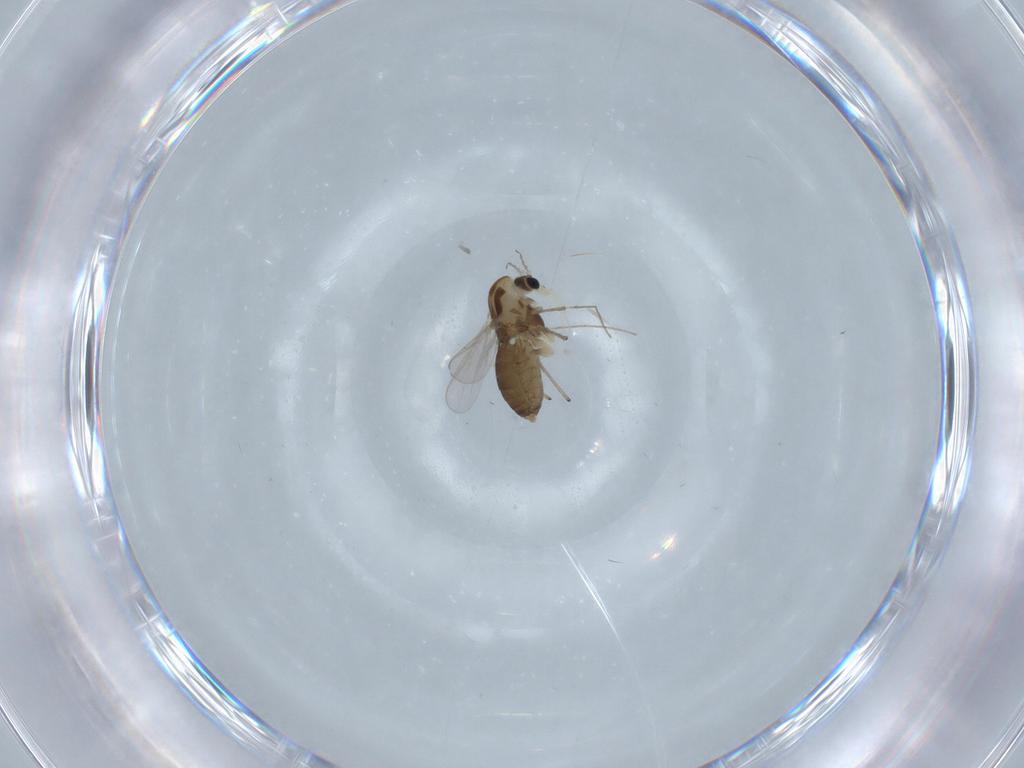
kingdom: Animalia
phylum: Arthropoda
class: Insecta
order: Diptera
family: Chironomidae
